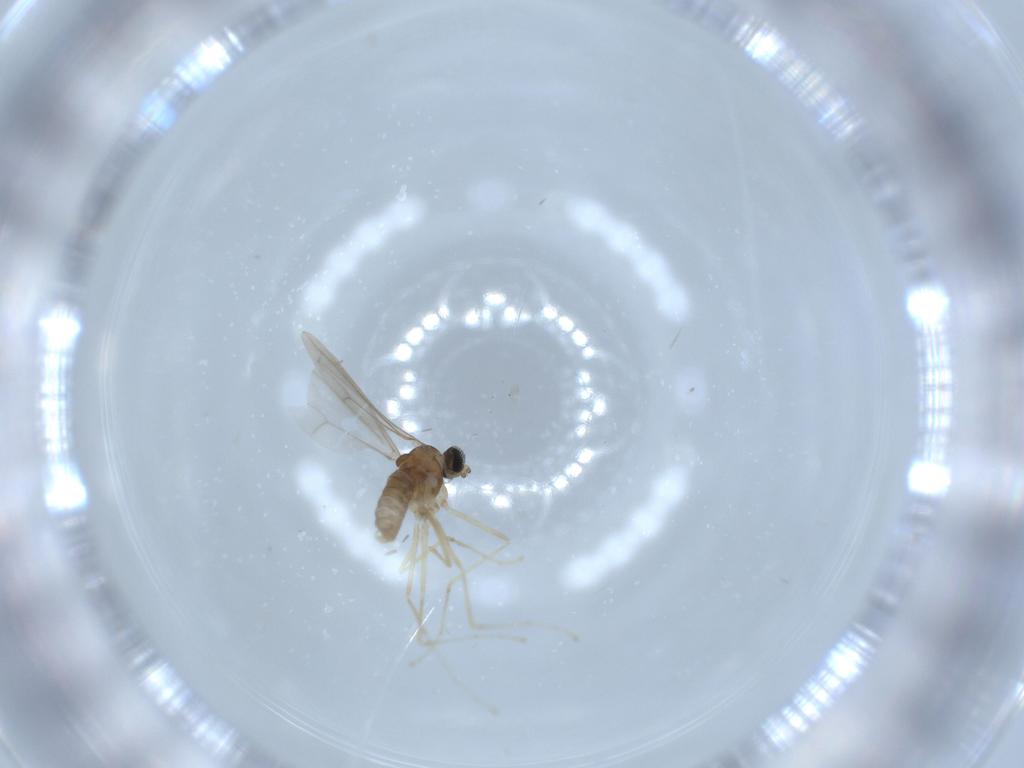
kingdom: Animalia
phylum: Arthropoda
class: Insecta
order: Diptera
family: Cecidomyiidae
